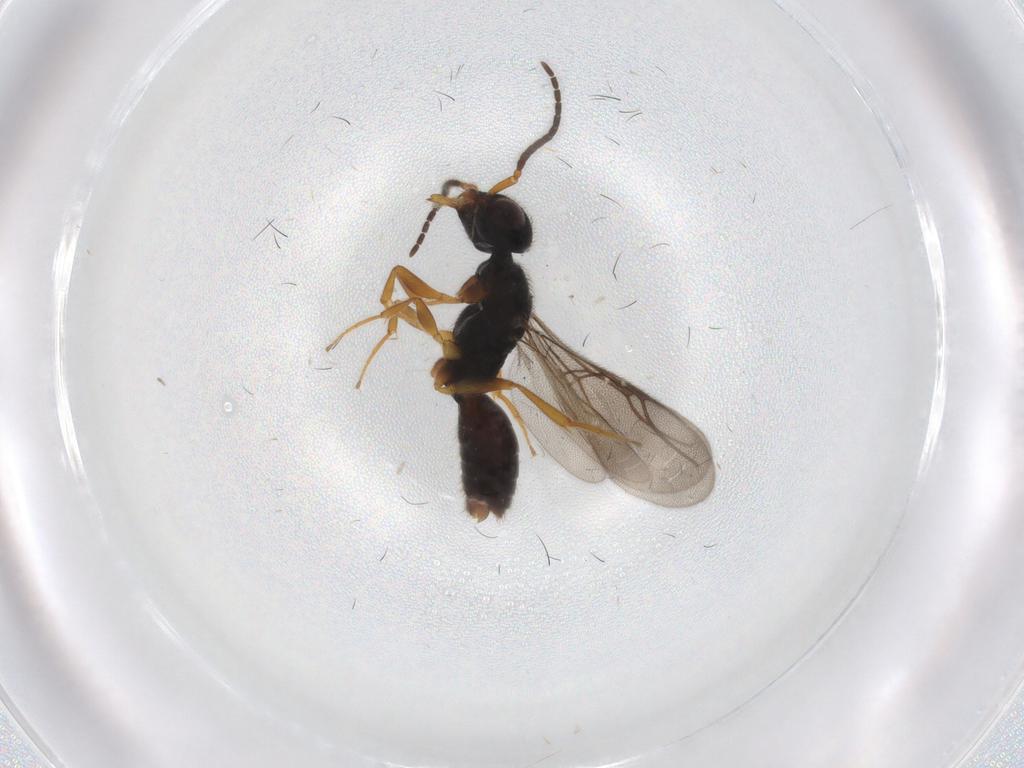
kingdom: Animalia
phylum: Arthropoda
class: Insecta
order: Hymenoptera
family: Bethylidae
